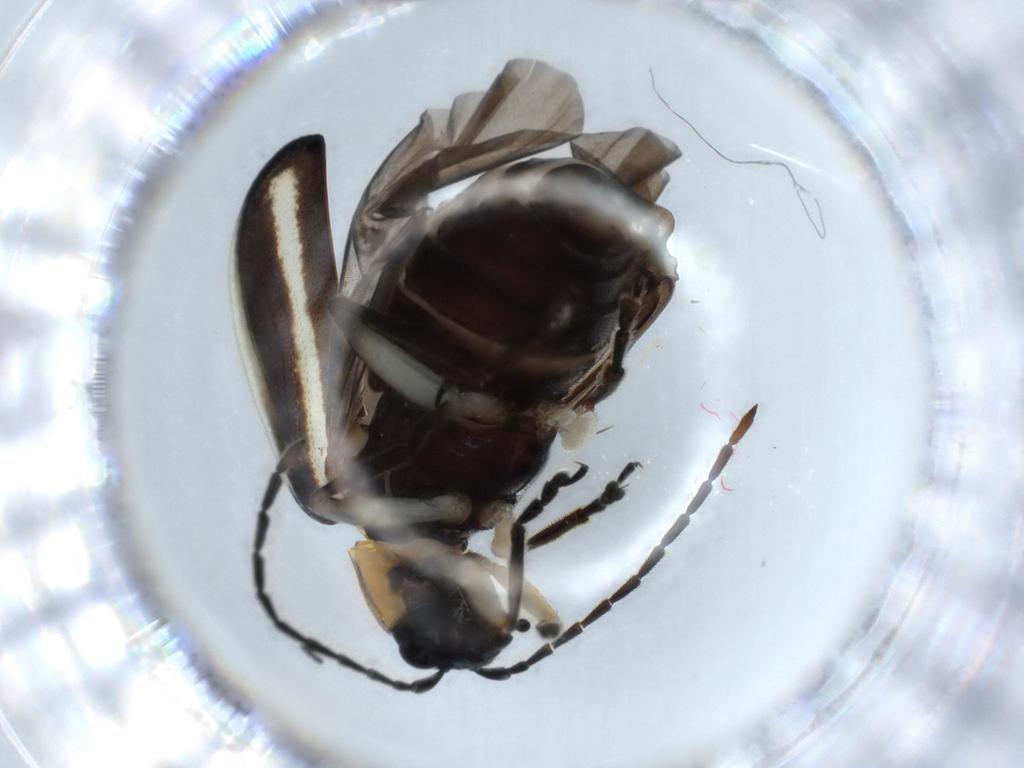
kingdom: Animalia
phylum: Arthropoda
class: Insecta
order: Coleoptera
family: Chrysomelidae
